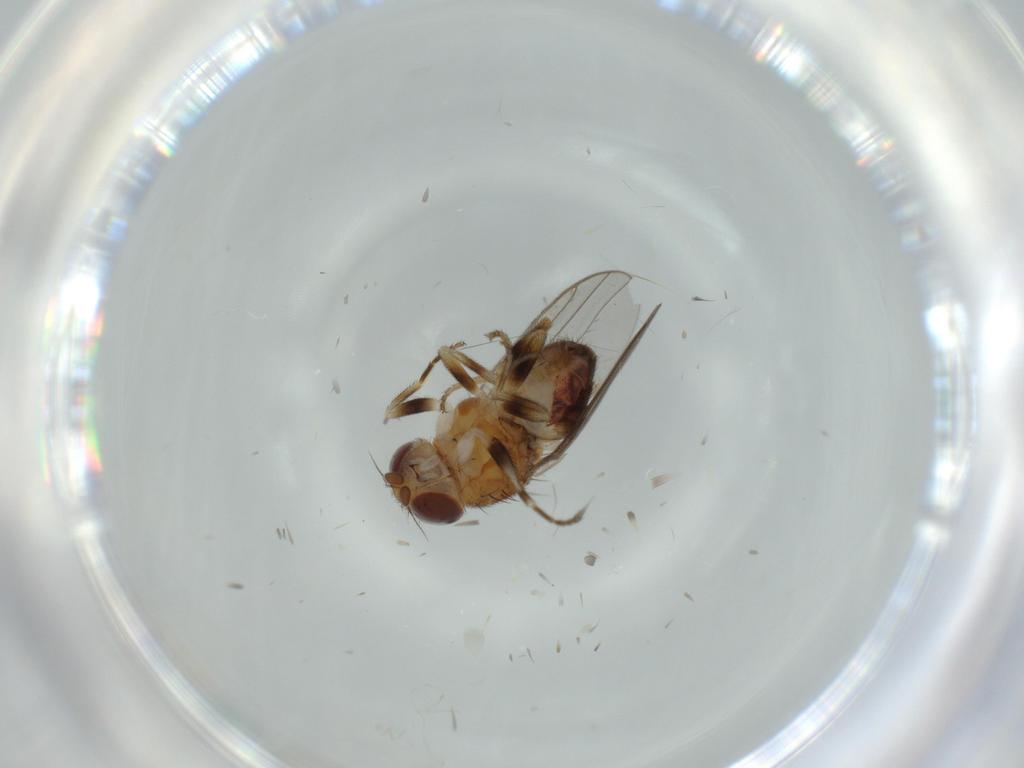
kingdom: Animalia
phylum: Arthropoda
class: Insecta
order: Diptera
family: Chloropidae
